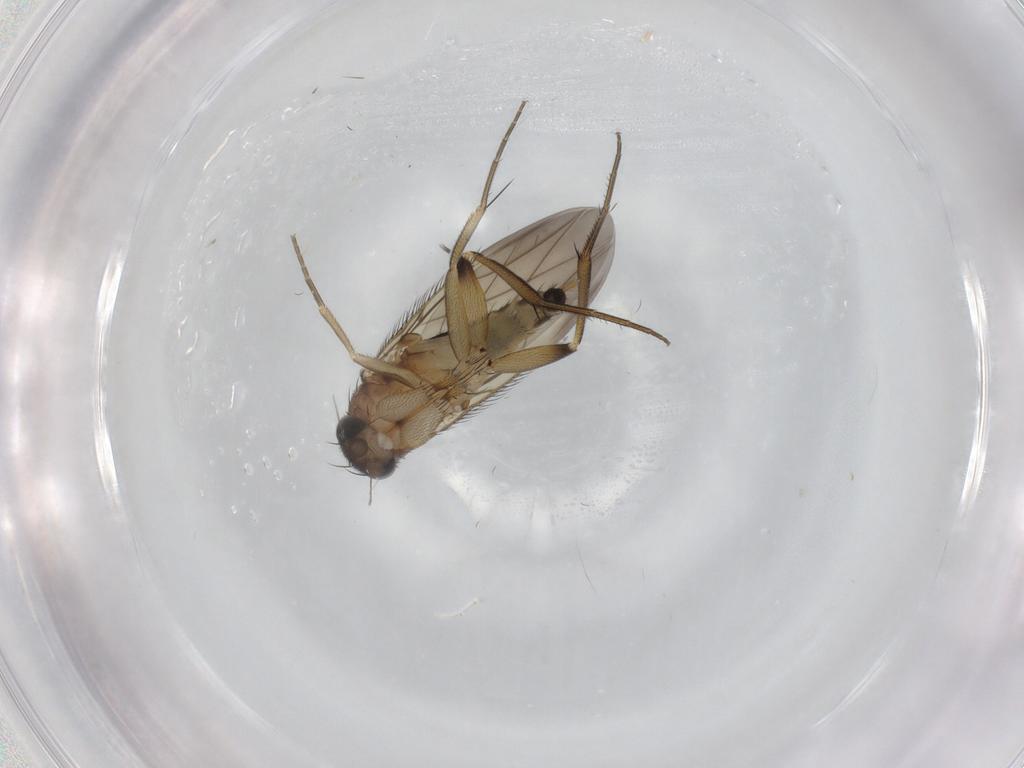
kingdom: Animalia
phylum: Arthropoda
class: Insecta
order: Diptera
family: Phoridae
